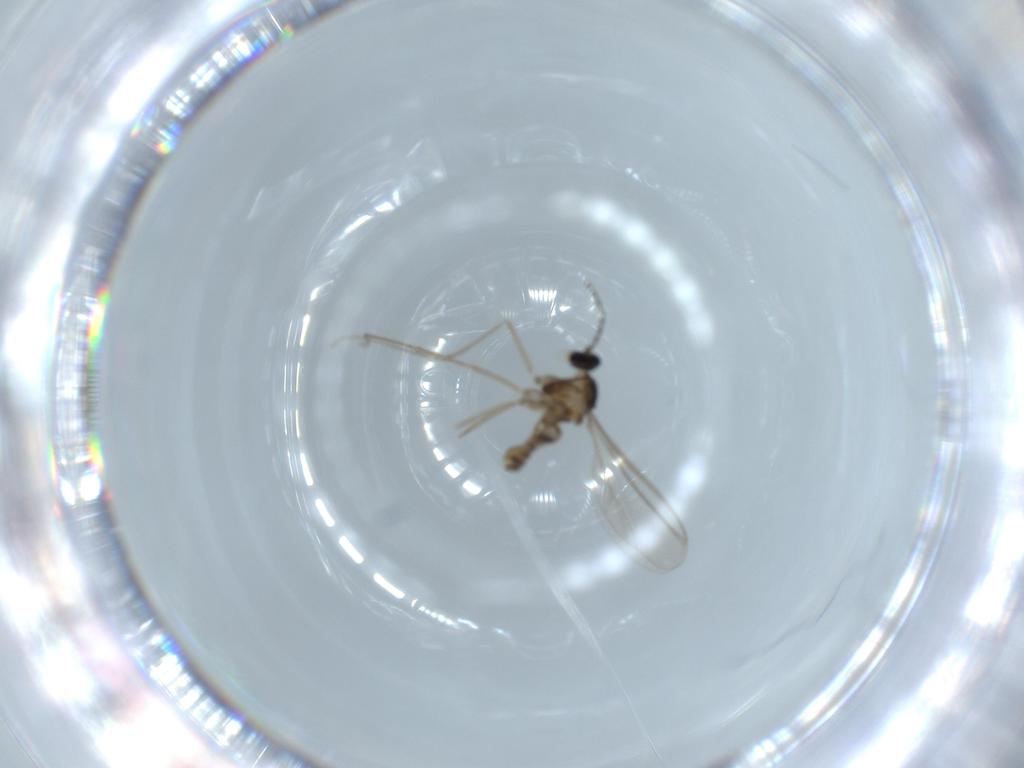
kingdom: Animalia
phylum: Arthropoda
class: Insecta
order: Diptera
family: Cecidomyiidae
